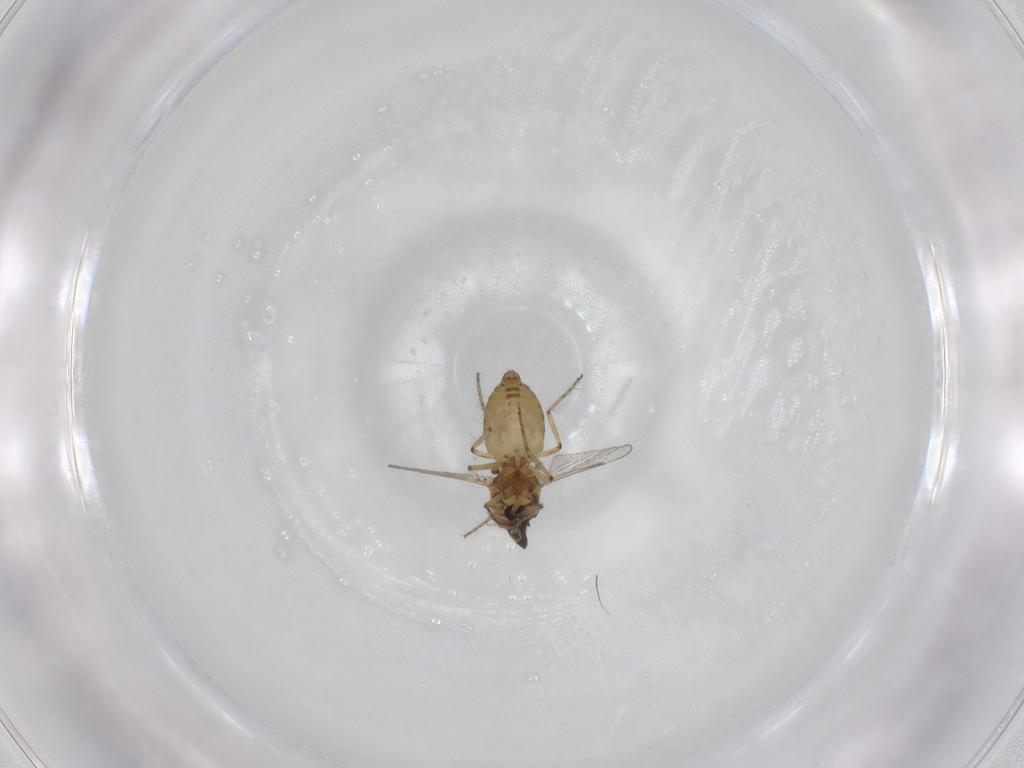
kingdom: Animalia
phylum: Arthropoda
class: Insecta
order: Diptera
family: Ceratopogonidae
